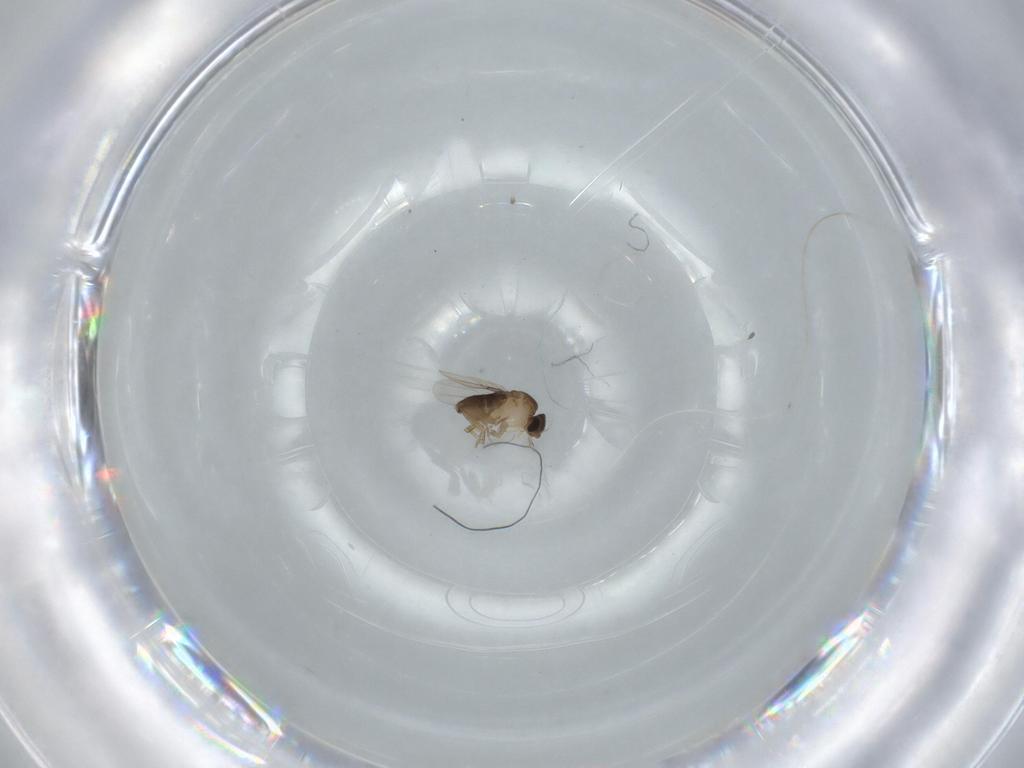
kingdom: Animalia
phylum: Arthropoda
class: Insecta
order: Diptera
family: Cecidomyiidae
